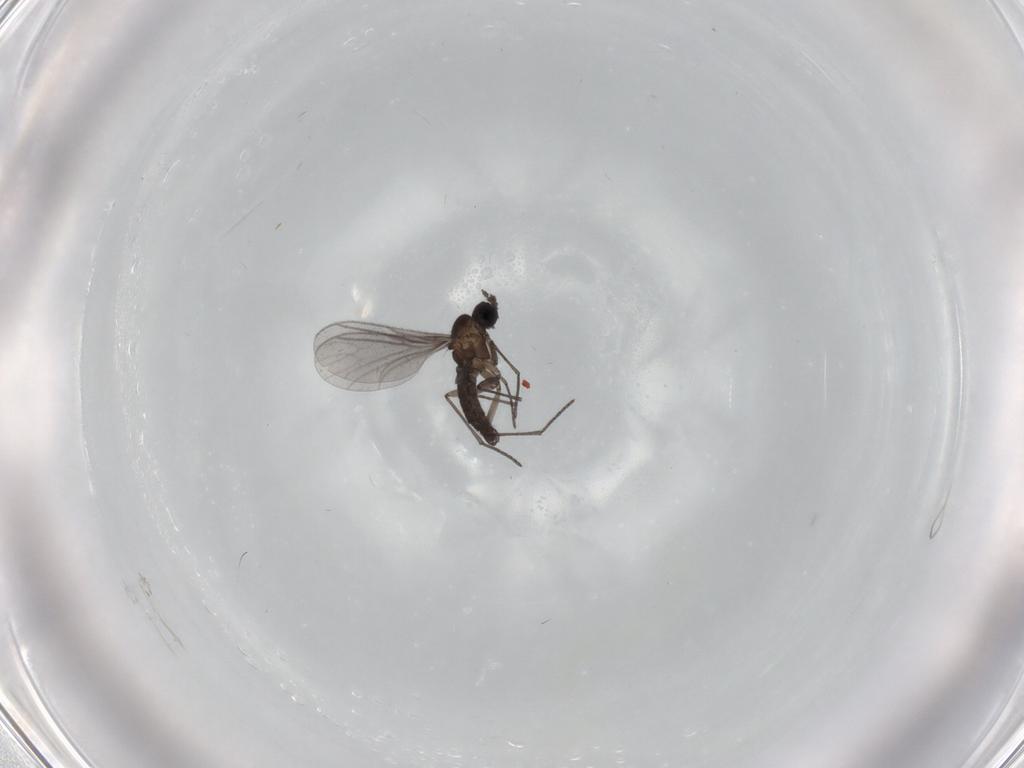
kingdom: Animalia
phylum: Arthropoda
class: Insecta
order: Diptera
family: Sciaridae
